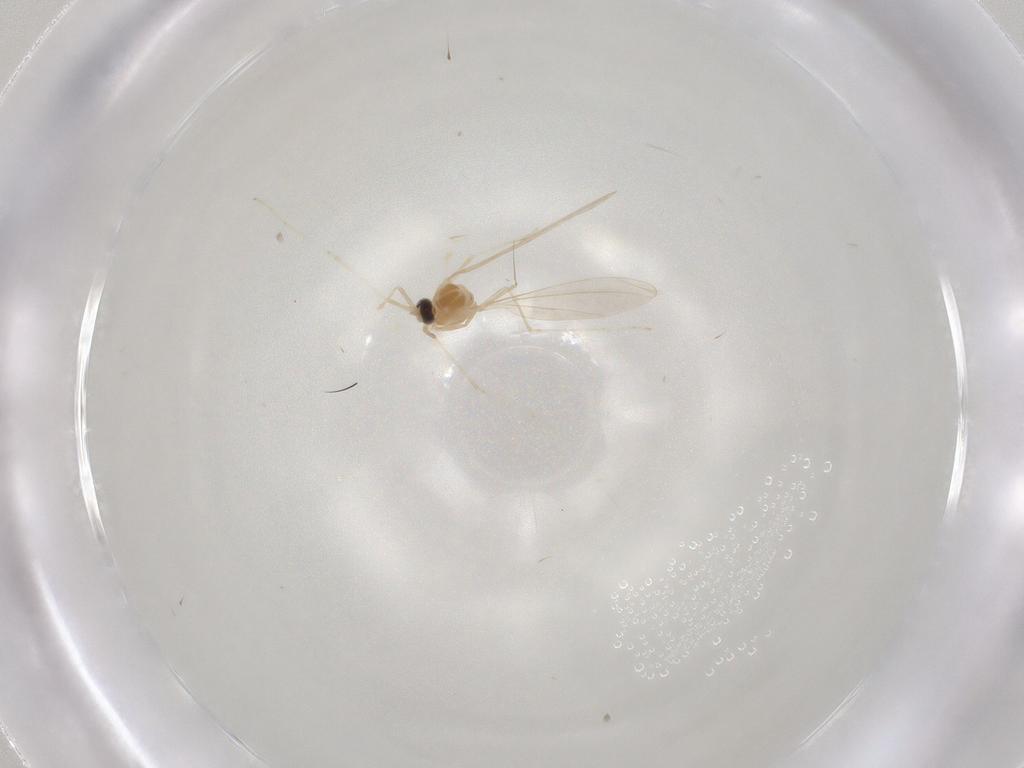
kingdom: Animalia
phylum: Arthropoda
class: Insecta
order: Diptera
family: Cecidomyiidae
